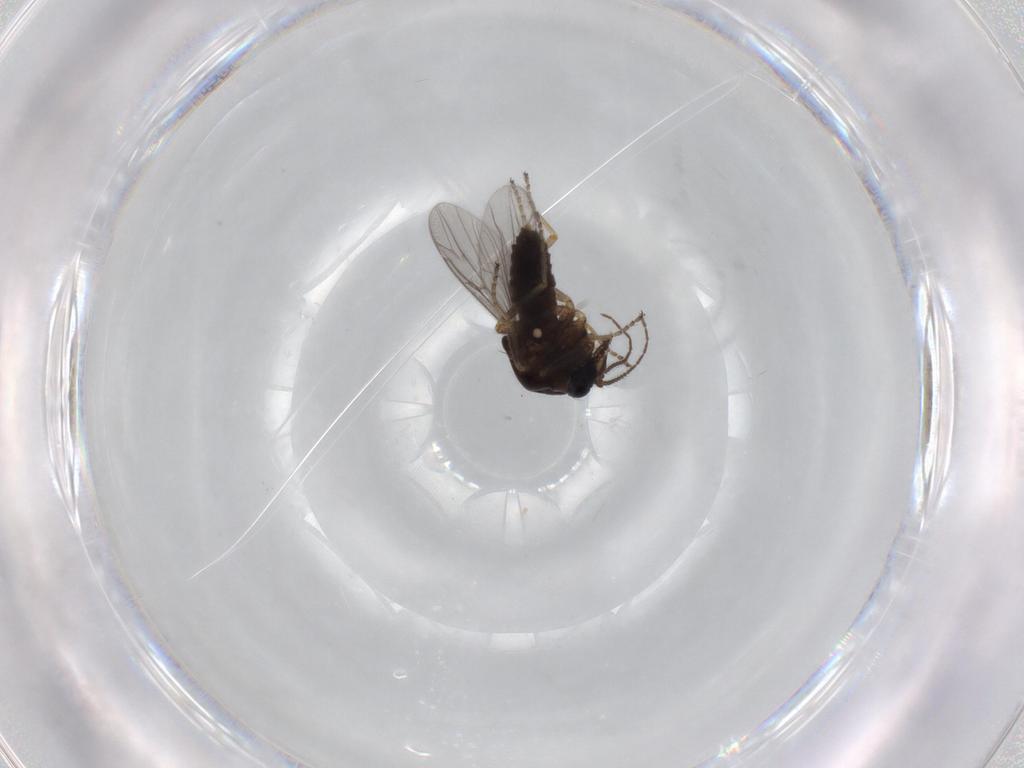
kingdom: Animalia
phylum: Arthropoda
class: Insecta
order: Diptera
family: Ceratopogonidae
